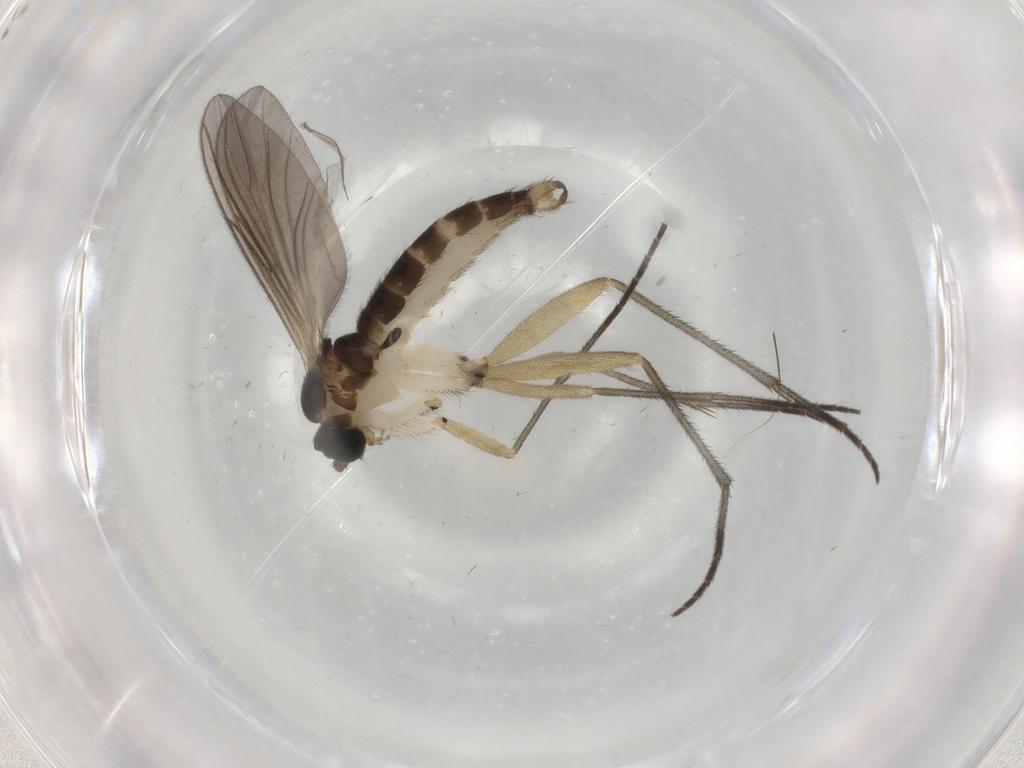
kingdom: Animalia
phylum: Arthropoda
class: Insecta
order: Diptera
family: Sciaridae
